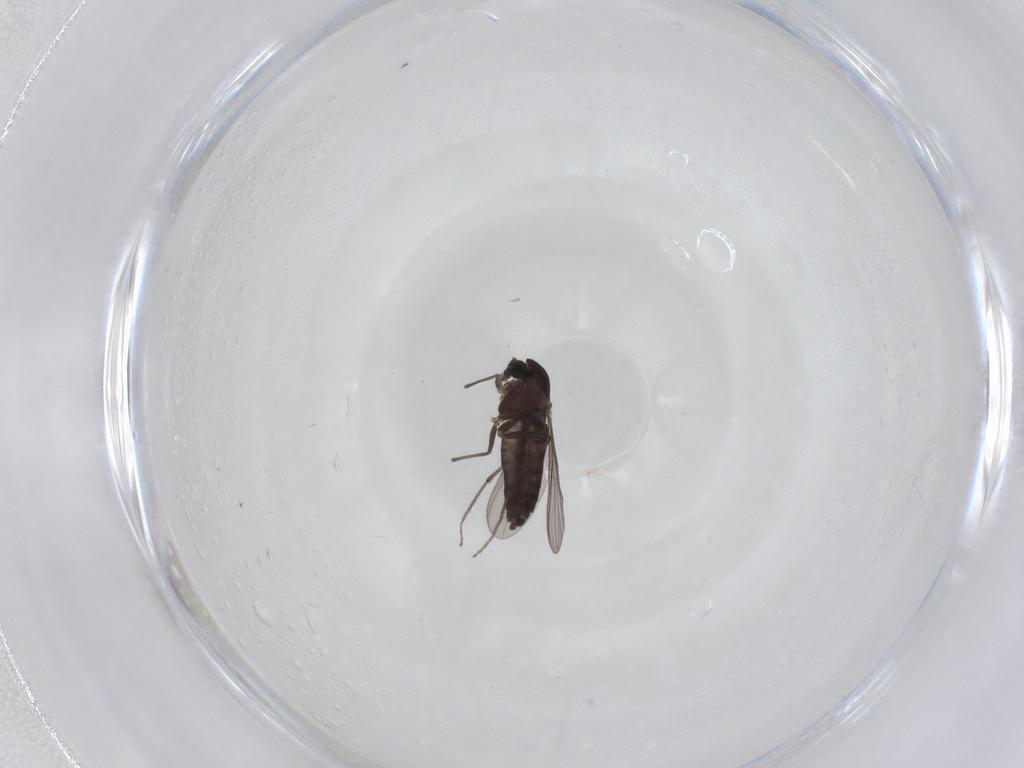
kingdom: Animalia
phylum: Arthropoda
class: Insecta
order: Diptera
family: Chironomidae
